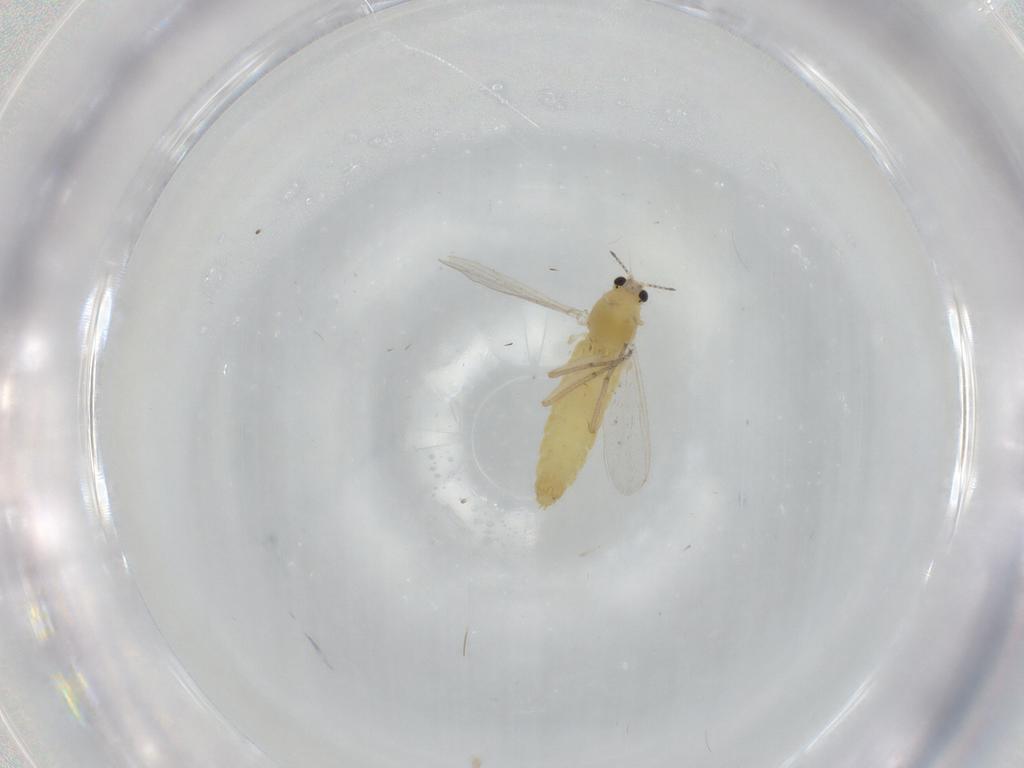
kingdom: Animalia
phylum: Arthropoda
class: Insecta
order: Diptera
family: Chironomidae
